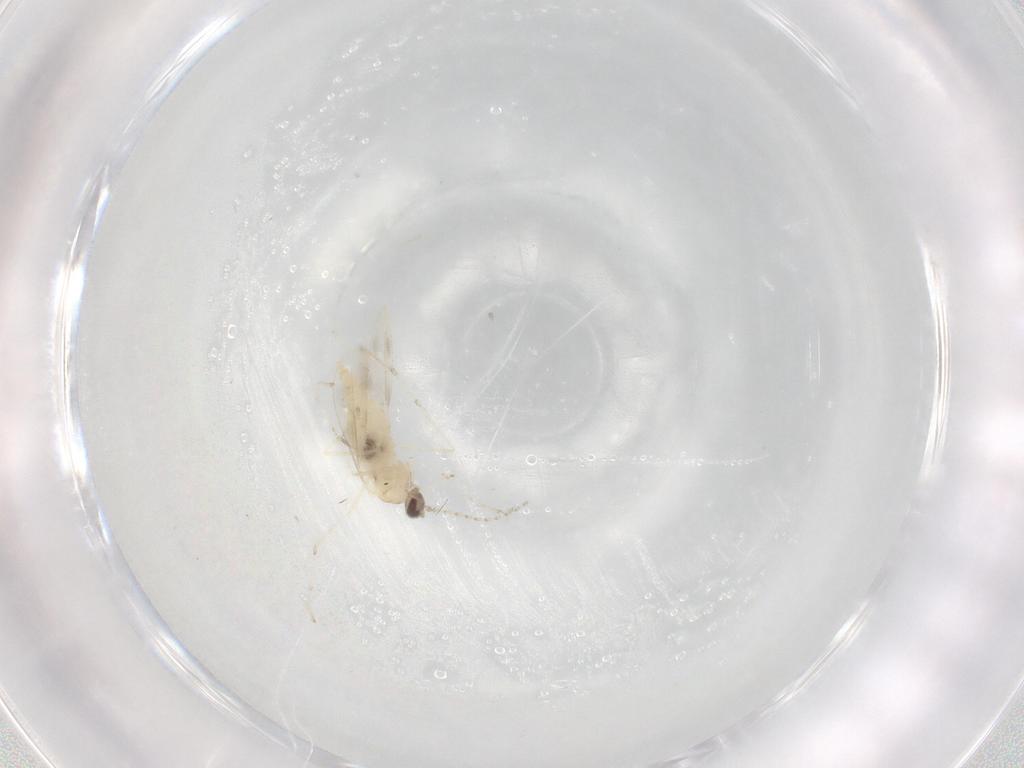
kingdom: Animalia
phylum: Arthropoda
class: Insecta
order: Diptera
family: Cecidomyiidae
